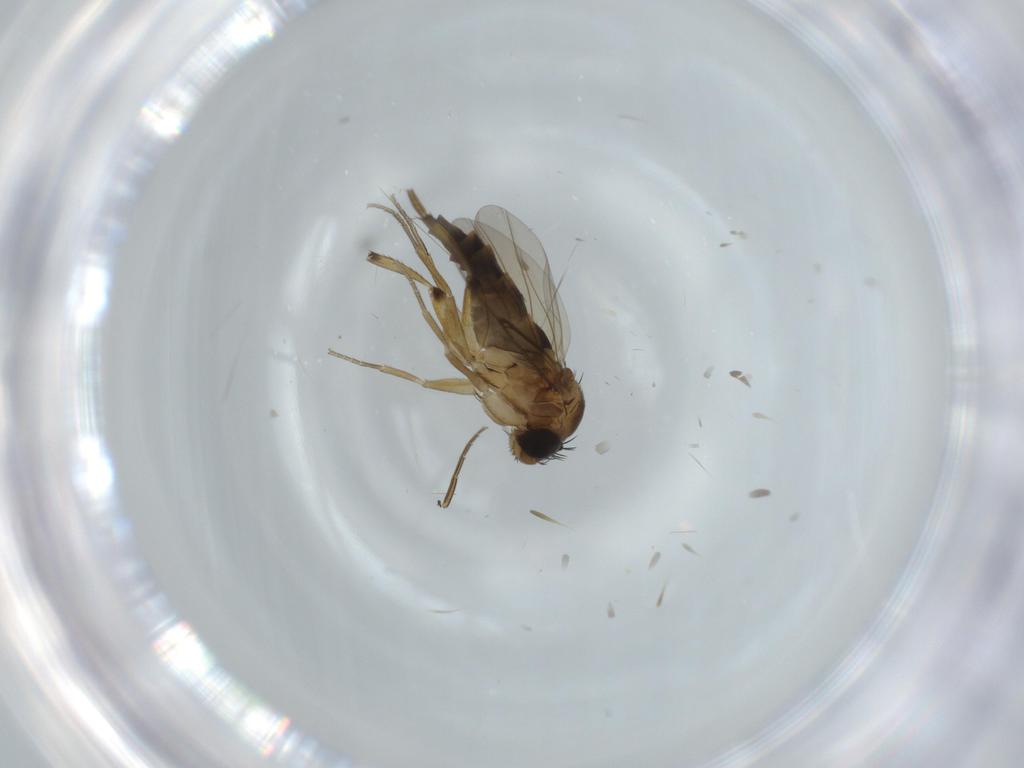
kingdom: Animalia
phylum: Arthropoda
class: Insecta
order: Diptera
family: Phoridae
